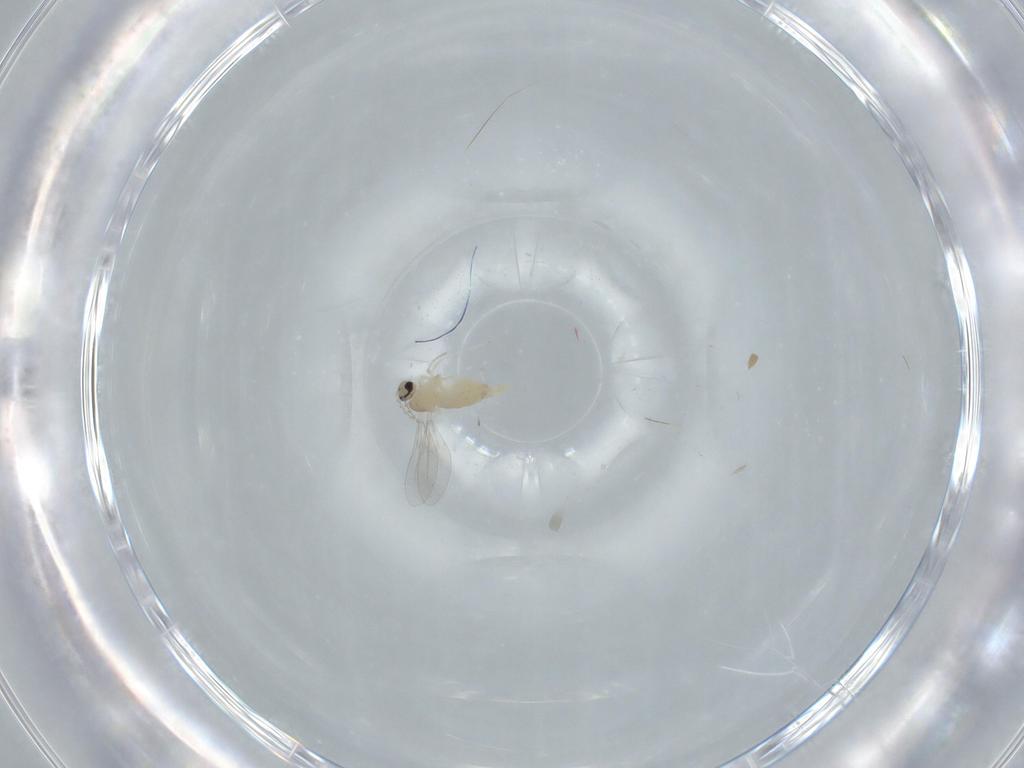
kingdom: Animalia
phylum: Arthropoda
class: Insecta
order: Diptera
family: Cecidomyiidae
